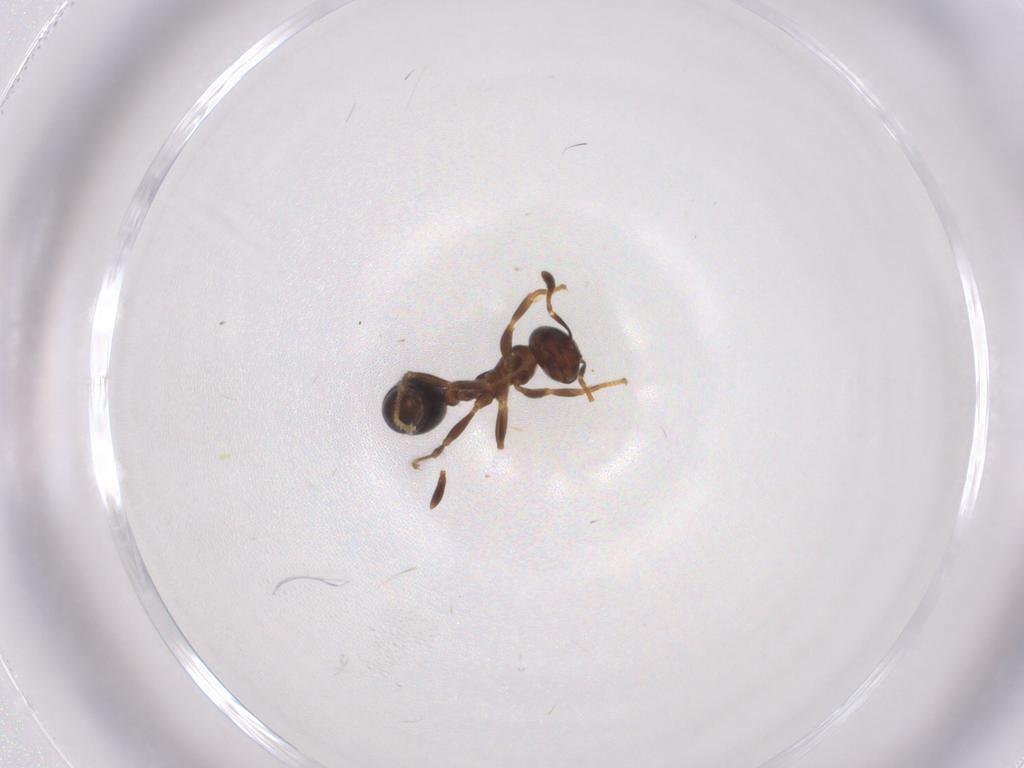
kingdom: Animalia
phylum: Arthropoda
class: Insecta
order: Hymenoptera
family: Formicidae
